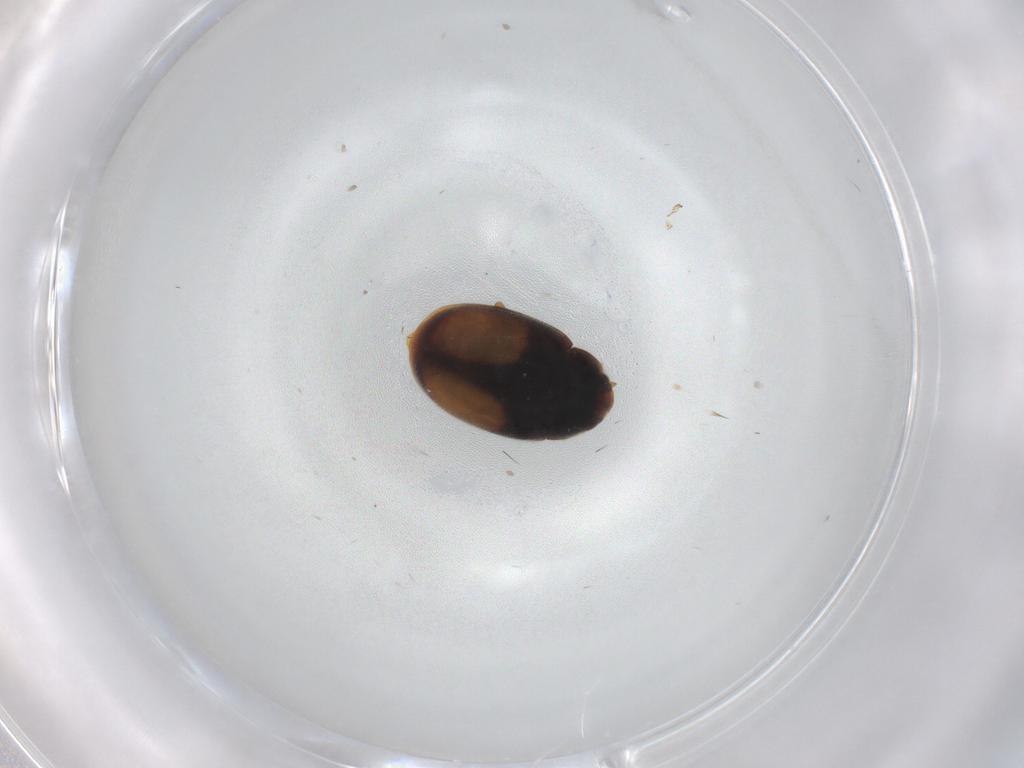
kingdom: Animalia
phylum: Arthropoda
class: Insecta
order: Coleoptera
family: Coccinellidae
